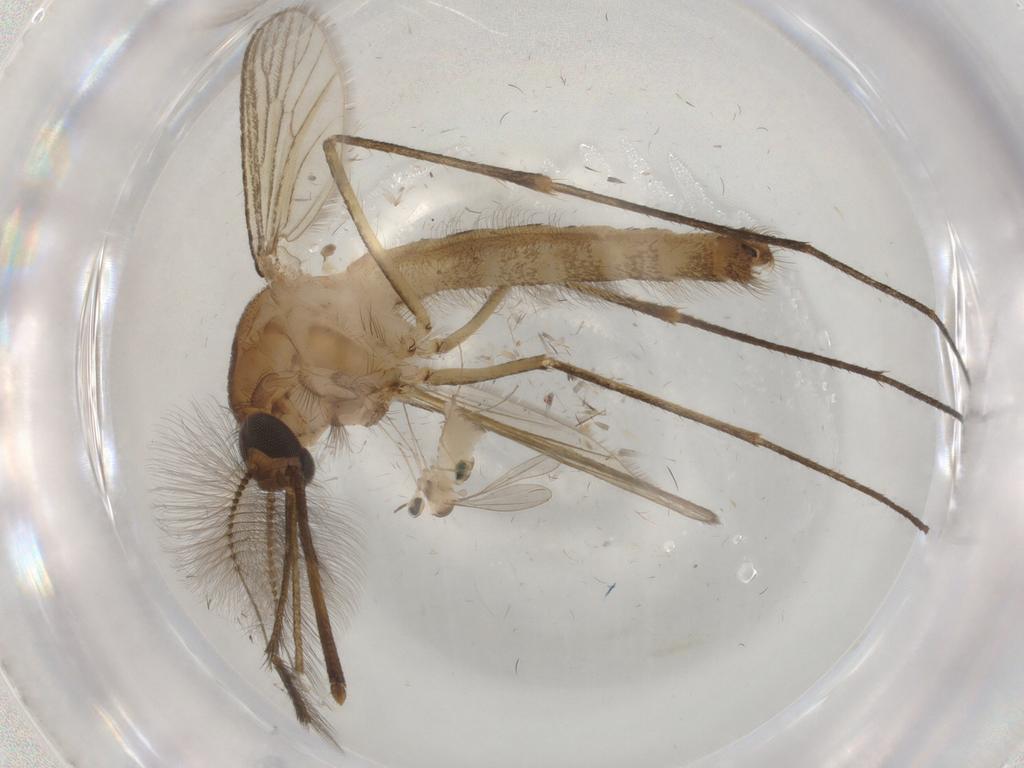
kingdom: Animalia
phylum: Arthropoda
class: Insecta
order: Diptera
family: Culicidae
